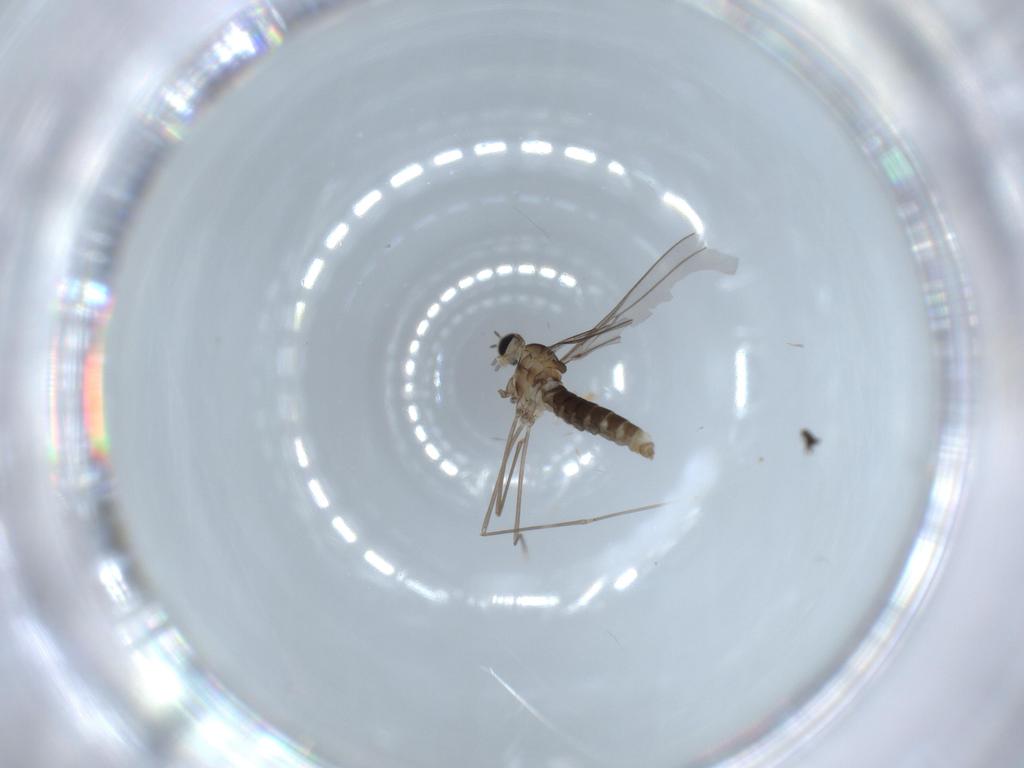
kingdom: Animalia
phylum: Arthropoda
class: Insecta
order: Diptera
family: Cecidomyiidae
